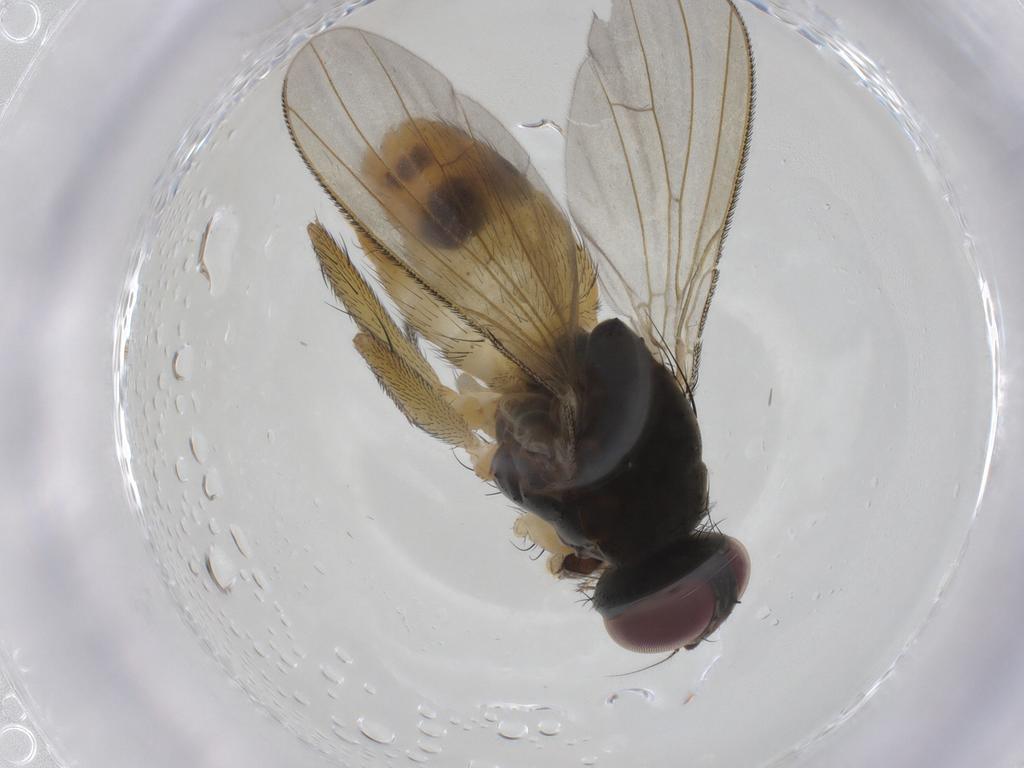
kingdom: Animalia
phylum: Arthropoda
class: Insecta
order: Diptera
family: Muscidae
